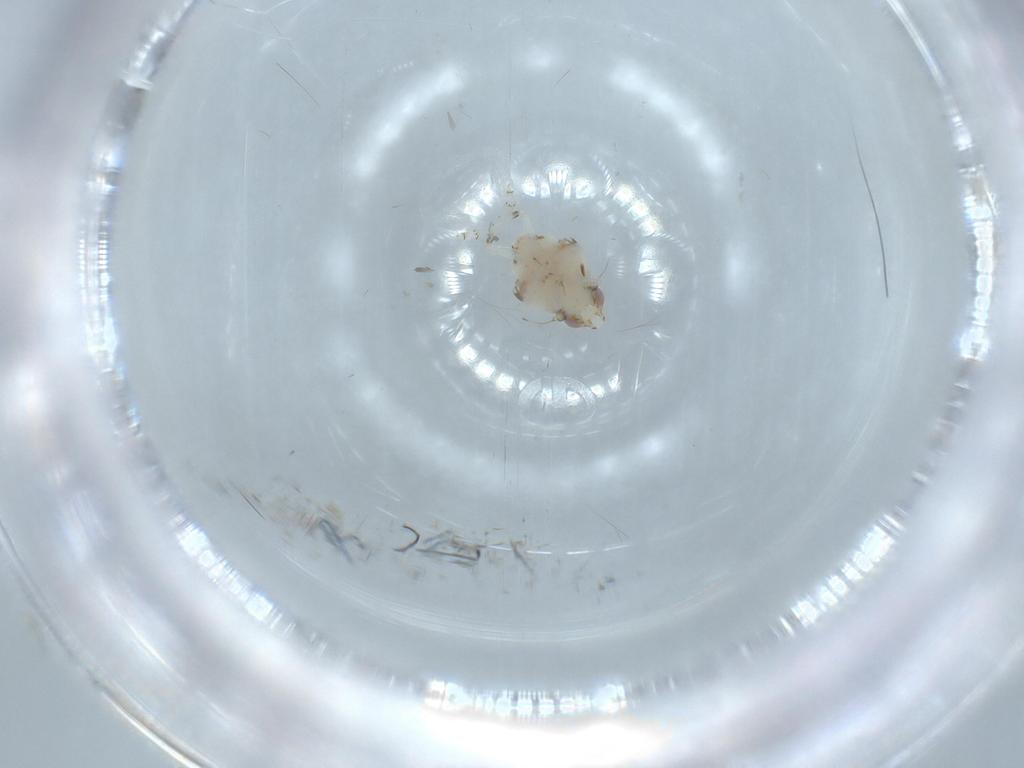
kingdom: Animalia
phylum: Arthropoda
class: Insecta
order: Hemiptera
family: Nogodinidae
